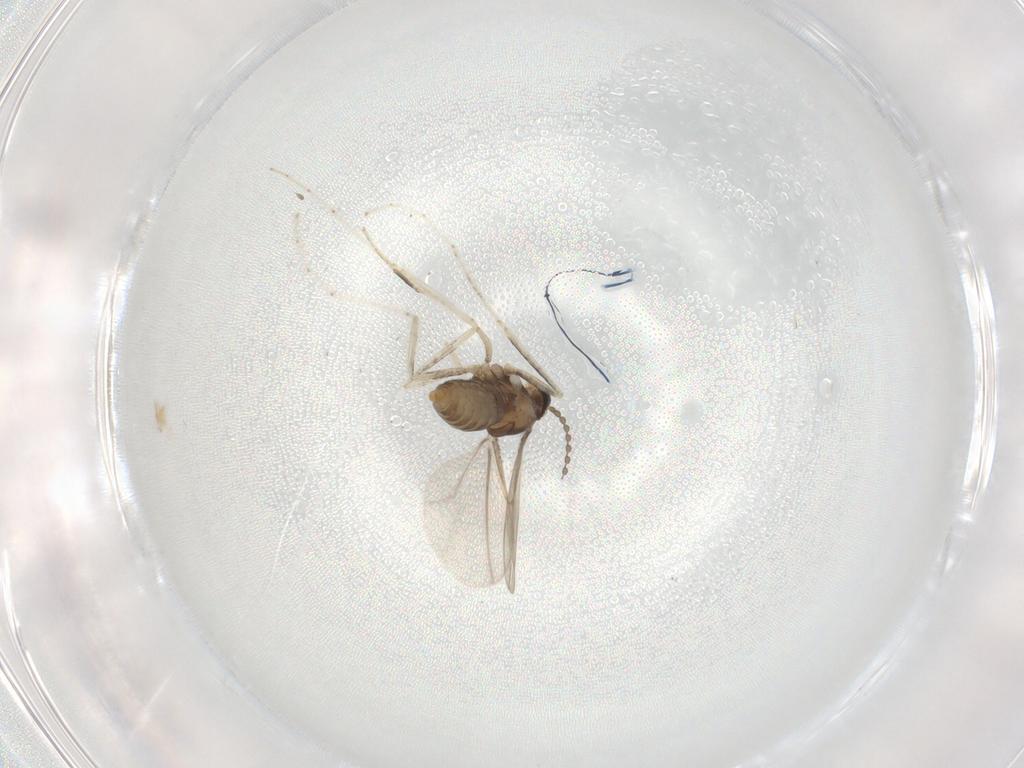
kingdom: Animalia
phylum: Arthropoda
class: Insecta
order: Diptera
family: Cecidomyiidae
